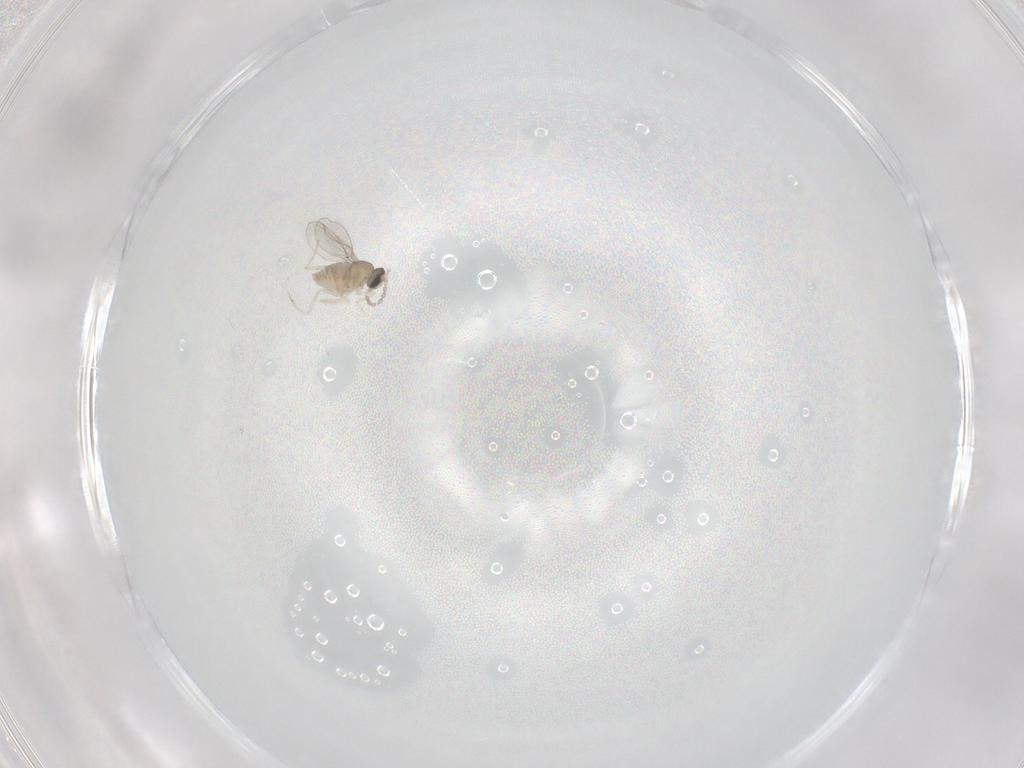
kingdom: Animalia
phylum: Arthropoda
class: Insecta
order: Diptera
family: Cecidomyiidae
